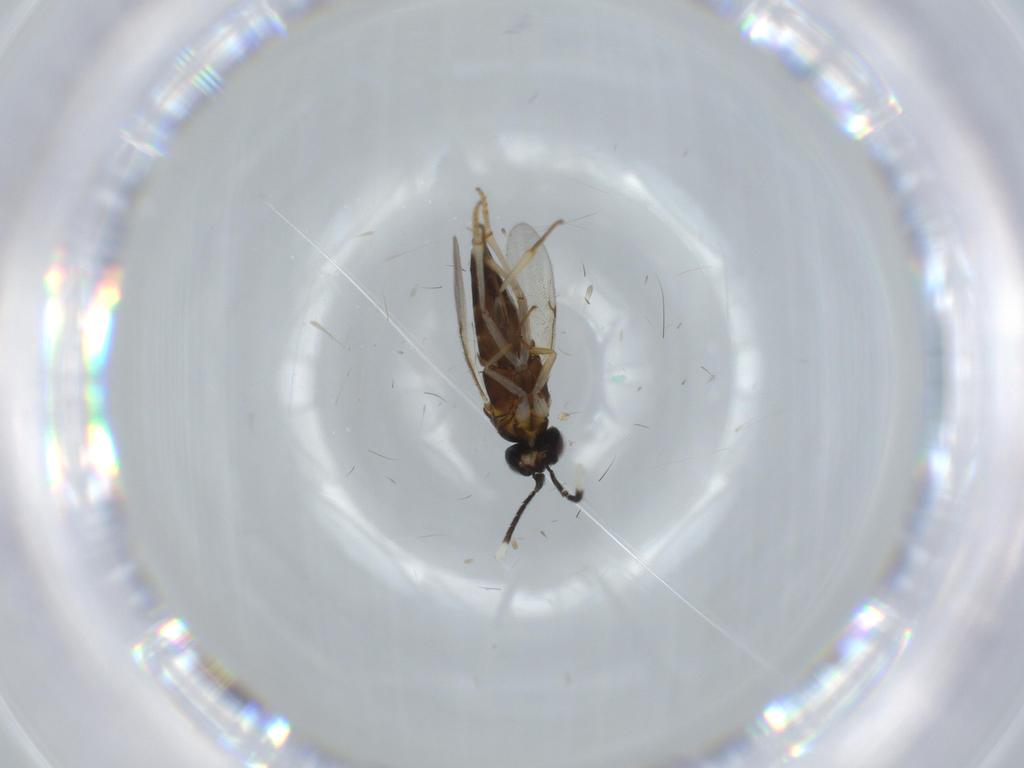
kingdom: Animalia
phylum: Arthropoda
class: Insecta
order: Hymenoptera
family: Encyrtidae
